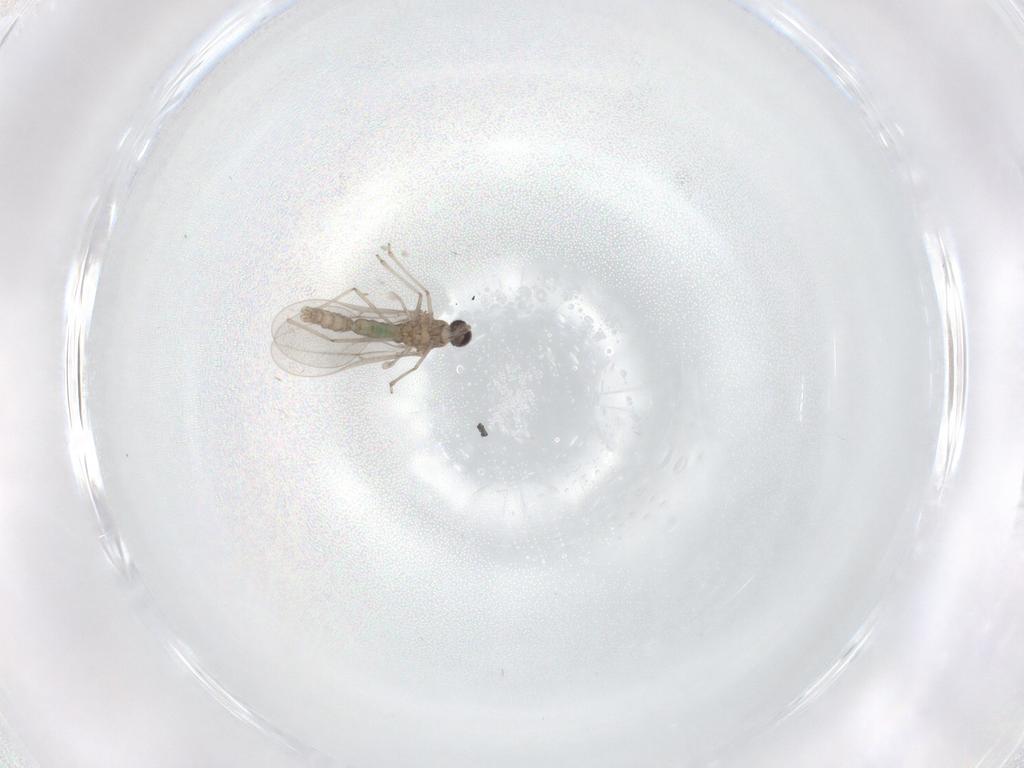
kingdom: Animalia
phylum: Arthropoda
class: Insecta
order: Diptera
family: Cecidomyiidae
